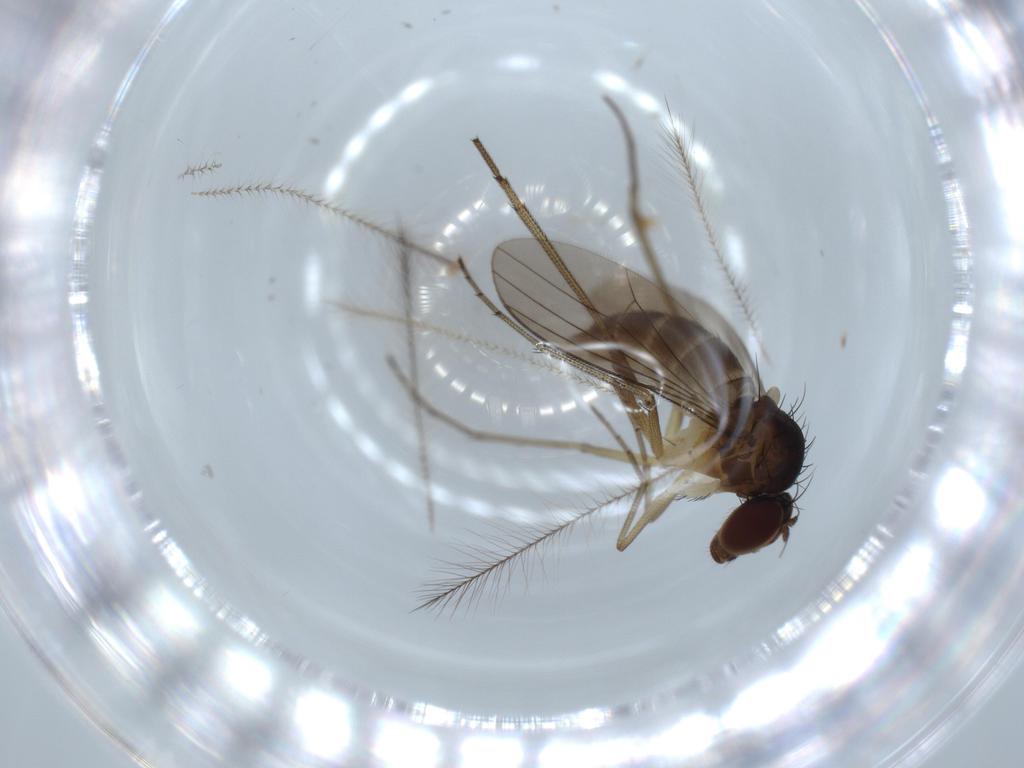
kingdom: Animalia
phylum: Arthropoda
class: Insecta
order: Diptera
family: Dolichopodidae
